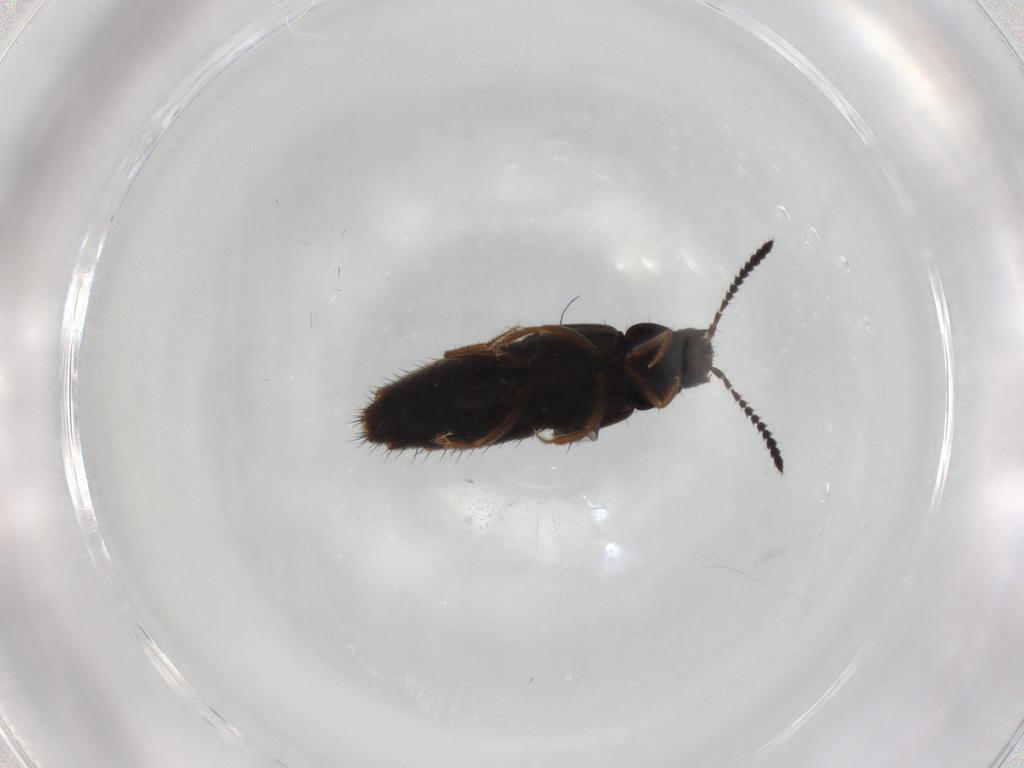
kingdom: Animalia
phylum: Arthropoda
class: Insecta
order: Coleoptera
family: Staphylinidae
